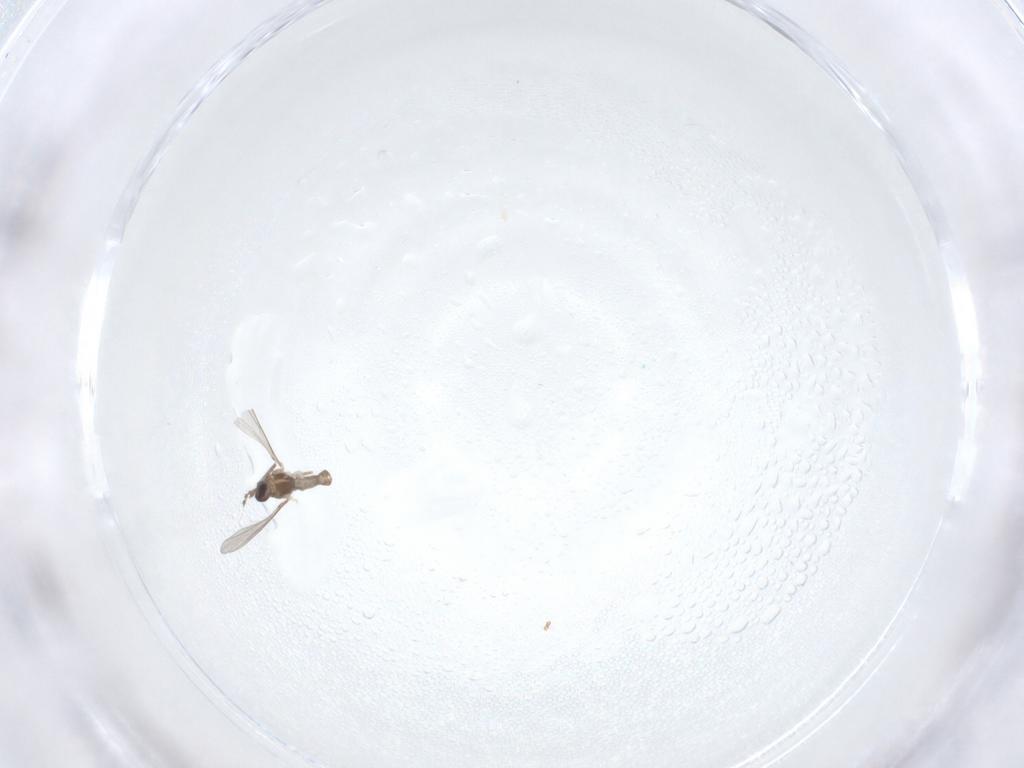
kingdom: Animalia
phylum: Arthropoda
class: Insecta
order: Diptera
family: Cecidomyiidae
